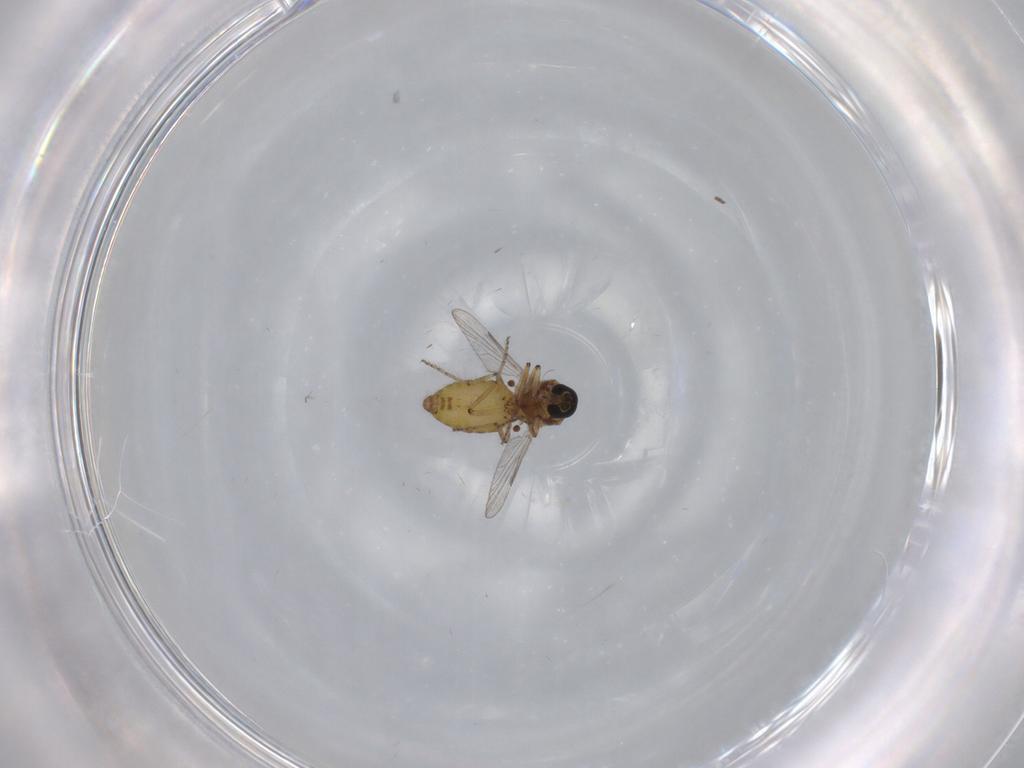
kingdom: Animalia
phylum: Arthropoda
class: Insecta
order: Diptera
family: Ceratopogonidae
